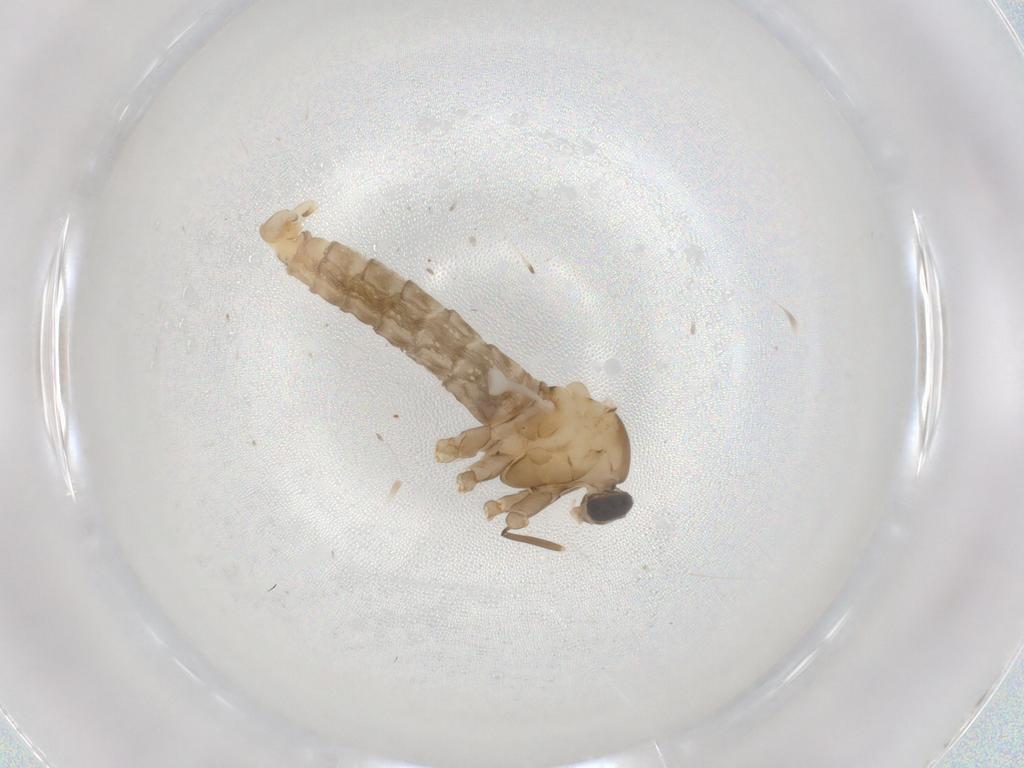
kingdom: Animalia
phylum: Arthropoda
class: Insecta
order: Diptera
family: Cecidomyiidae
